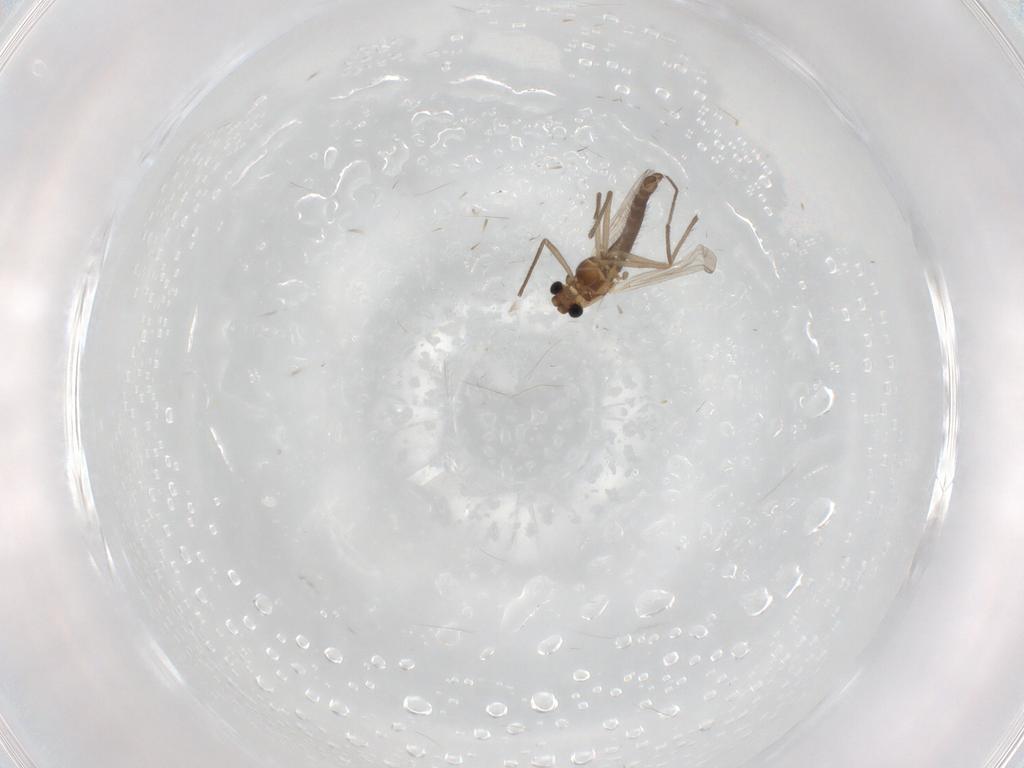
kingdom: Animalia
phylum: Arthropoda
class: Insecta
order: Diptera
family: Chironomidae
